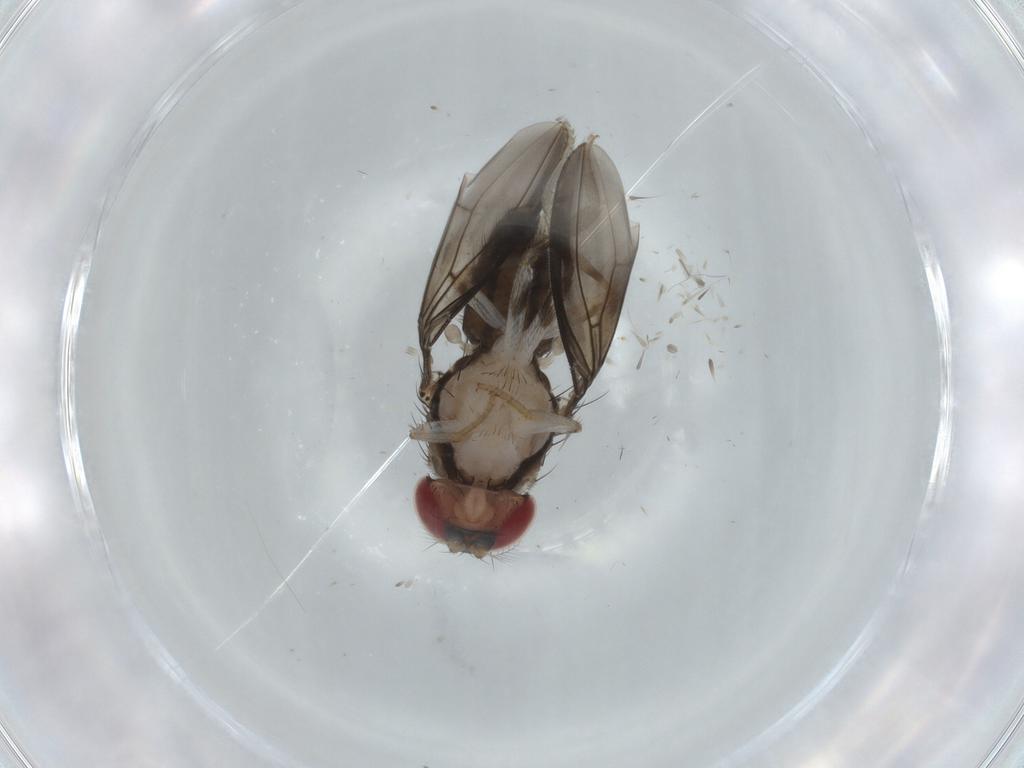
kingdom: Animalia
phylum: Arthropoda
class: Insecta
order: Diptera
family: Drosophilidae
